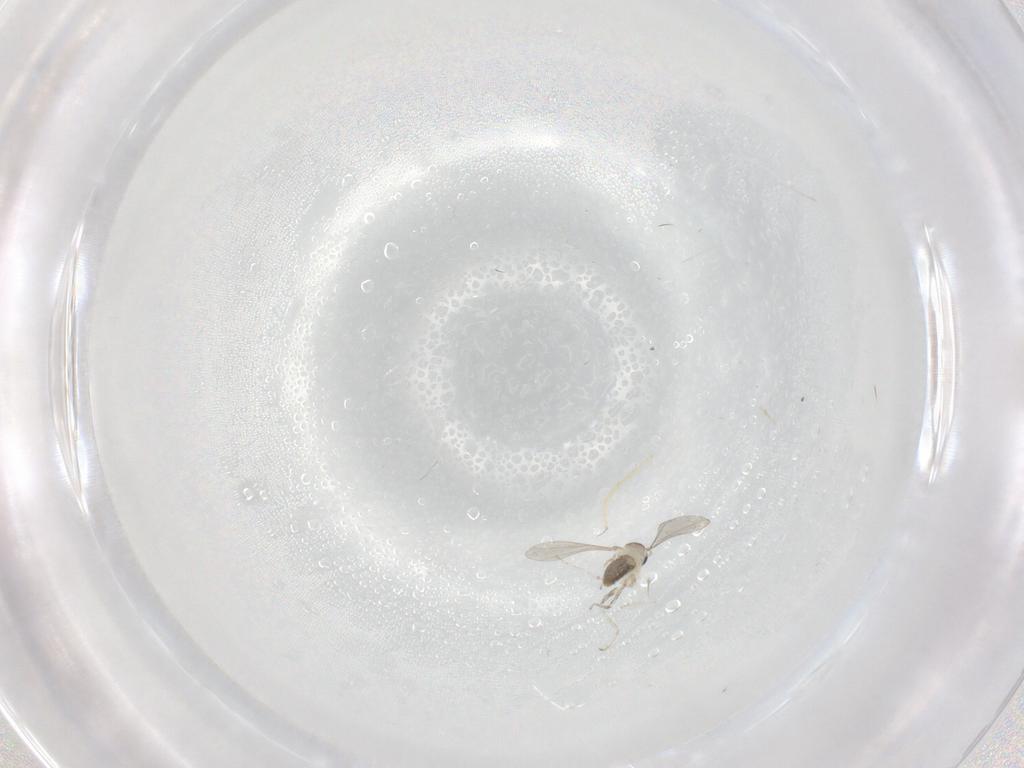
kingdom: Animalia
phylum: Arthropoda
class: Insecta
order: Diptera
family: Cecidomyiidae
